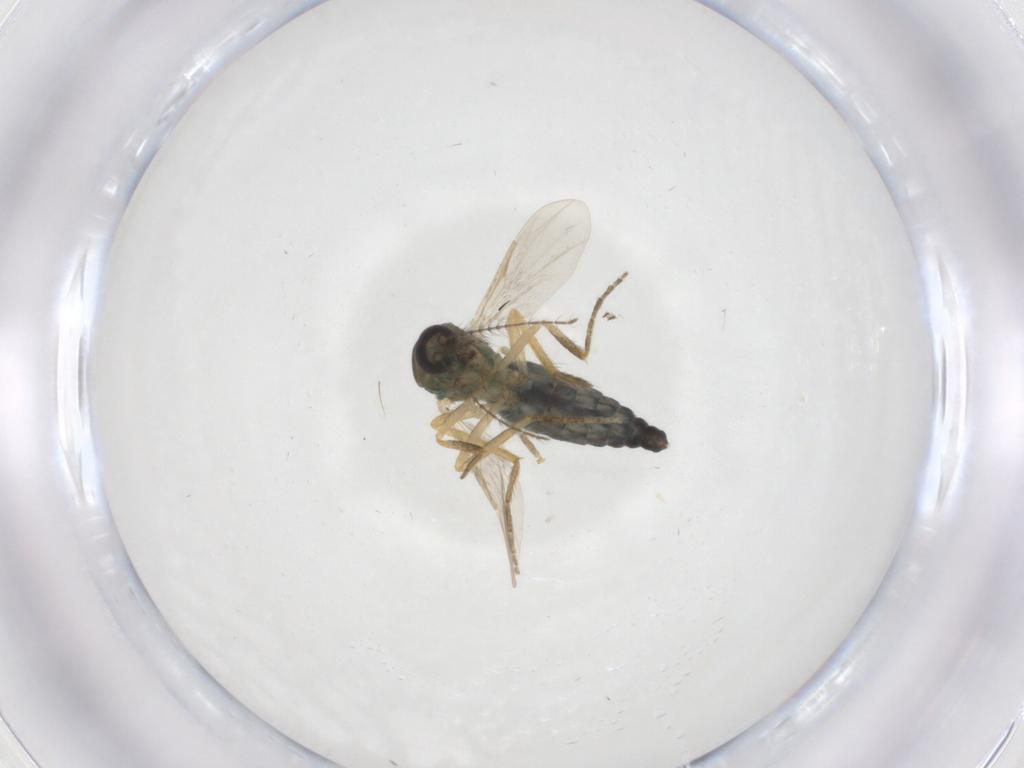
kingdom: Animalia
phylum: Arthropoda
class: Insecta
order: Diptera
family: Ceratopogonidae
